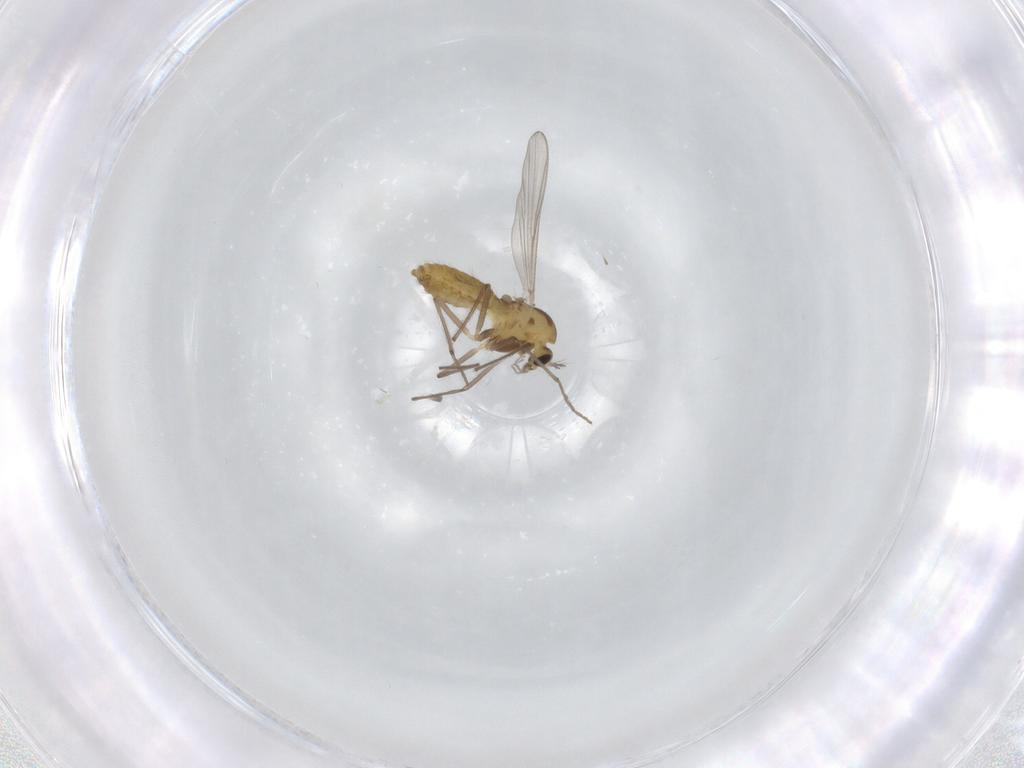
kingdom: Animalia
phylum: Arthropoda
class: Insecta
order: Diptera
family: Chironomidae
